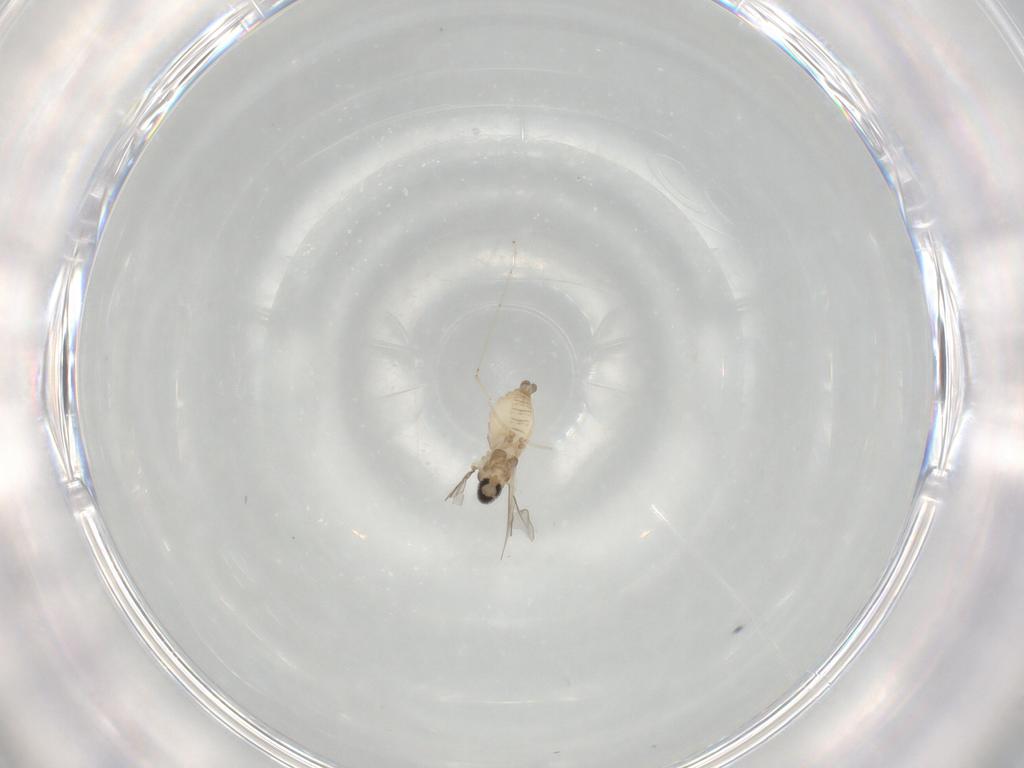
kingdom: Animalia
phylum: Arthropoda
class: Insecta
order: Diptera
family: Cecidomyiidae
